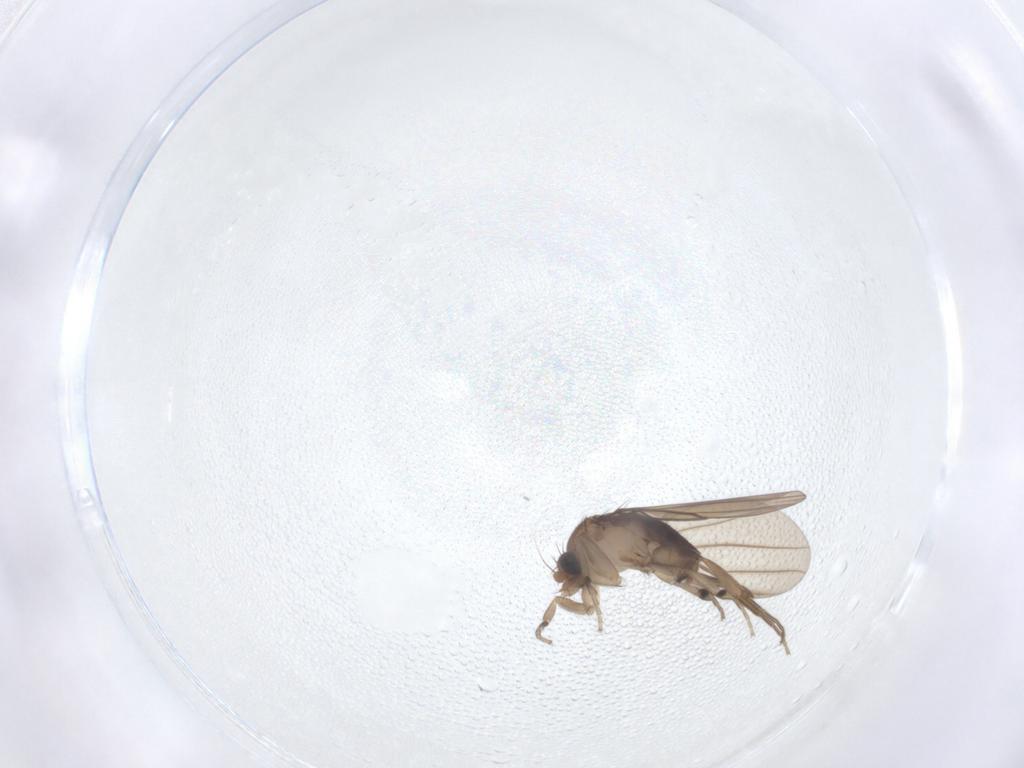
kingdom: Animalia
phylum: Arthropoda
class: Insecta
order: Diptera
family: Phoridae
